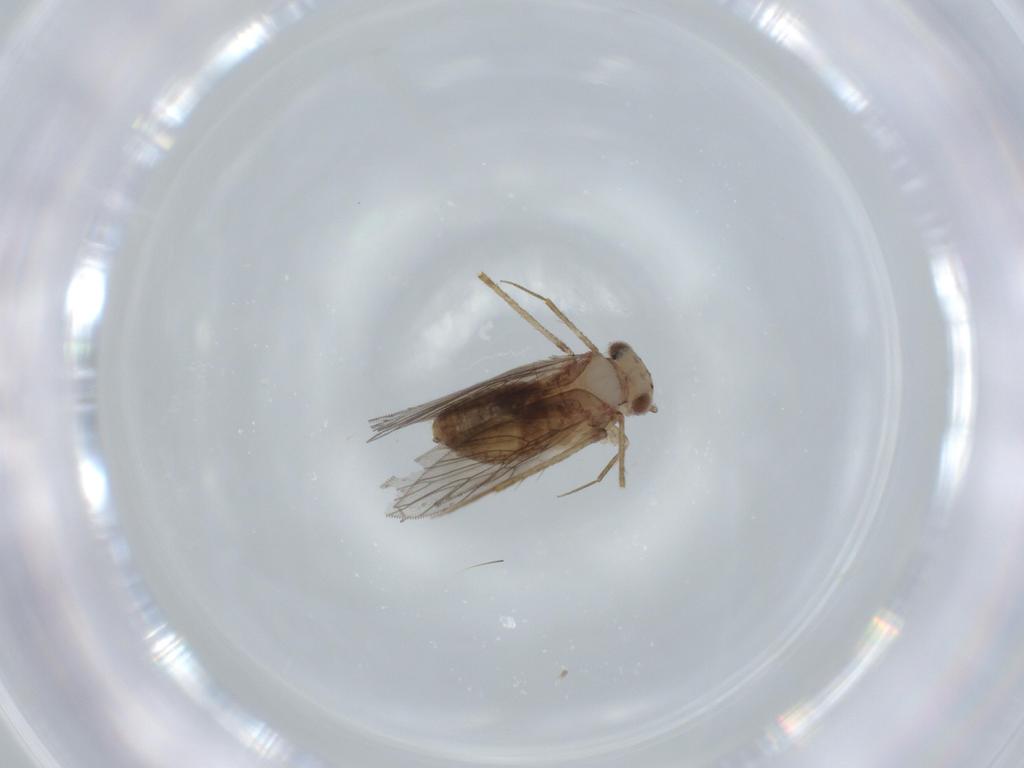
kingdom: Animalia
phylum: Arthropoda
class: Insecta
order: Psocodea
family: Lepidopsocidae
